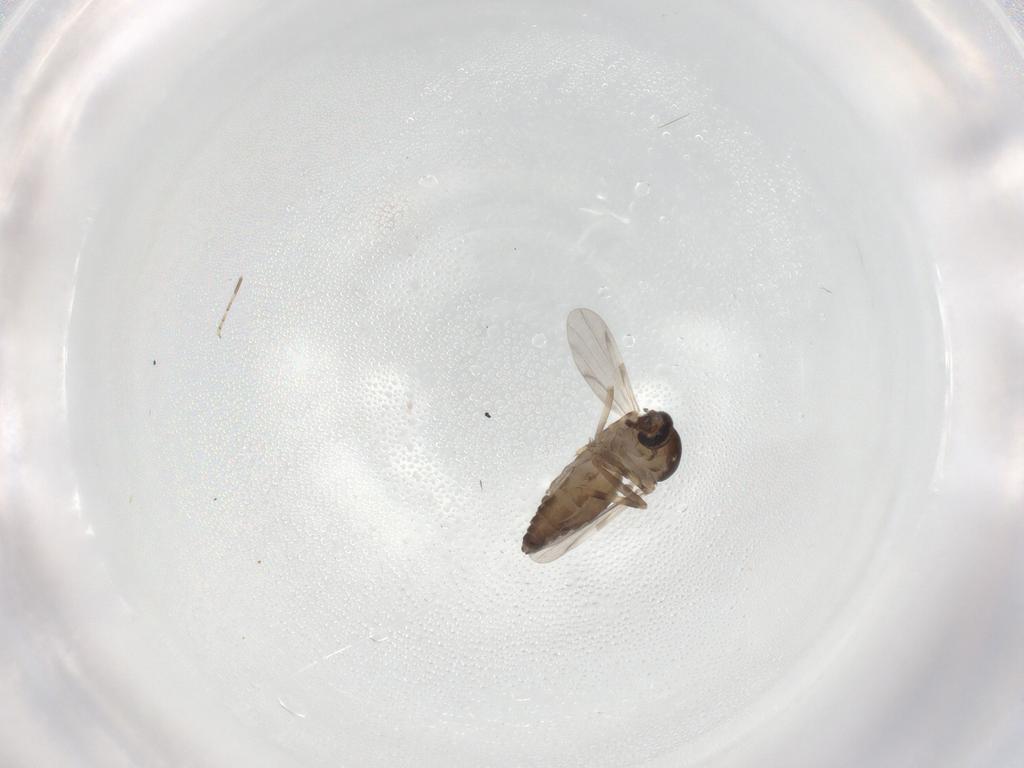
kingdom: Animalia
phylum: Arthropoda
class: Insecta
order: Diptera
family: Ceratopogonidae
